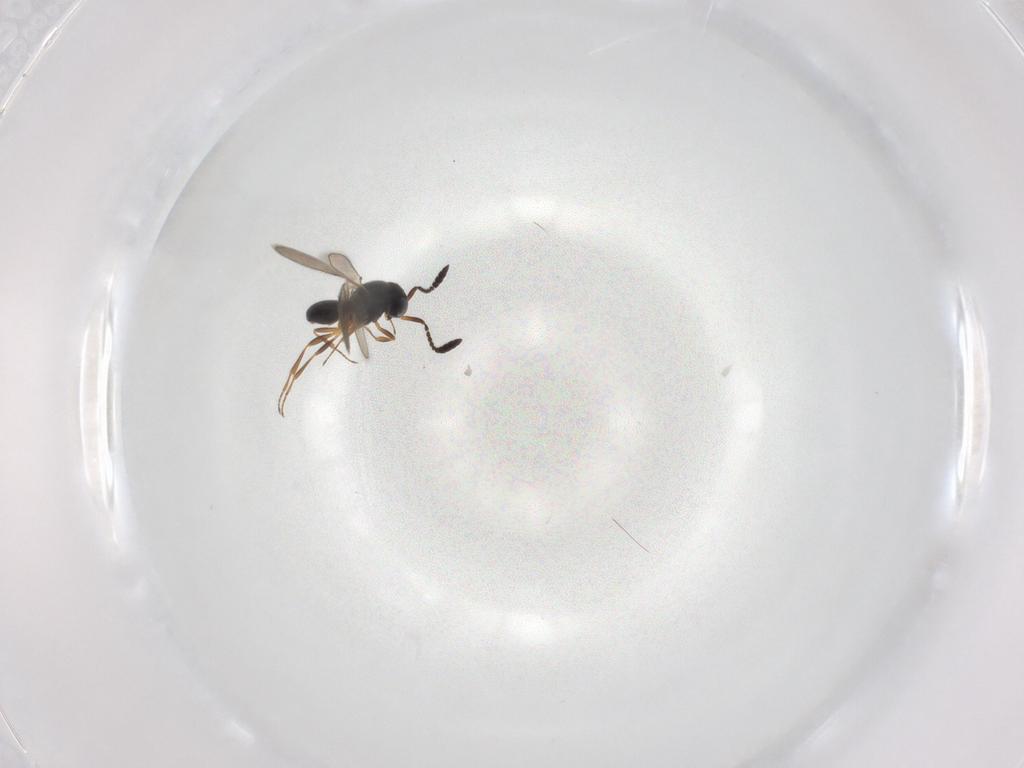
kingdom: Animalia
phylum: Arthropoda
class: Insecta
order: Hymenoptera
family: Scelionidae
